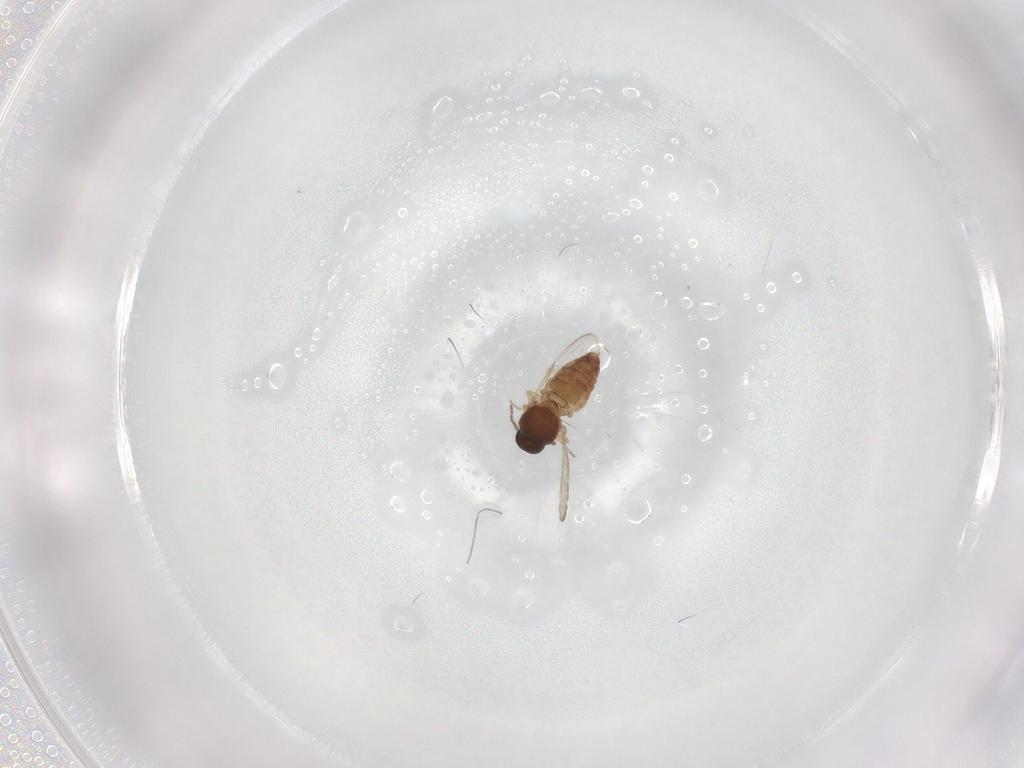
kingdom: Animalia
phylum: Arthropoda
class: Insecta
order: Diptera
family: Ceratopogonidae
